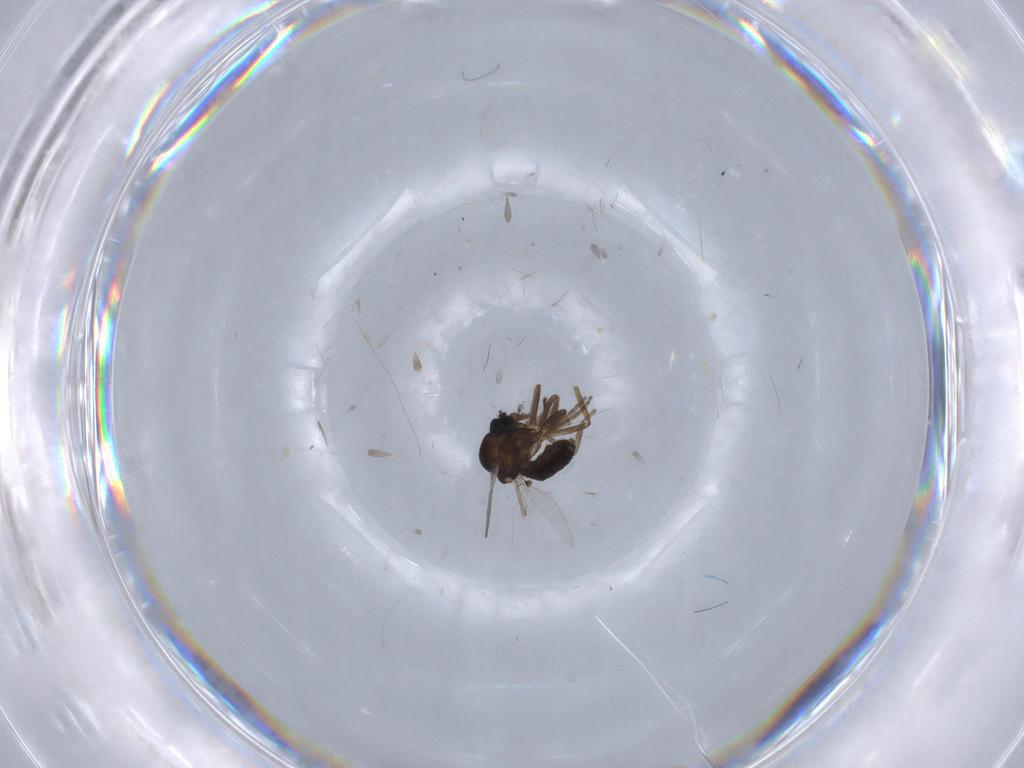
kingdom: Animalia
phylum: Arthropoda
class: Insecta
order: Diptera
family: Ceratopogonidae
